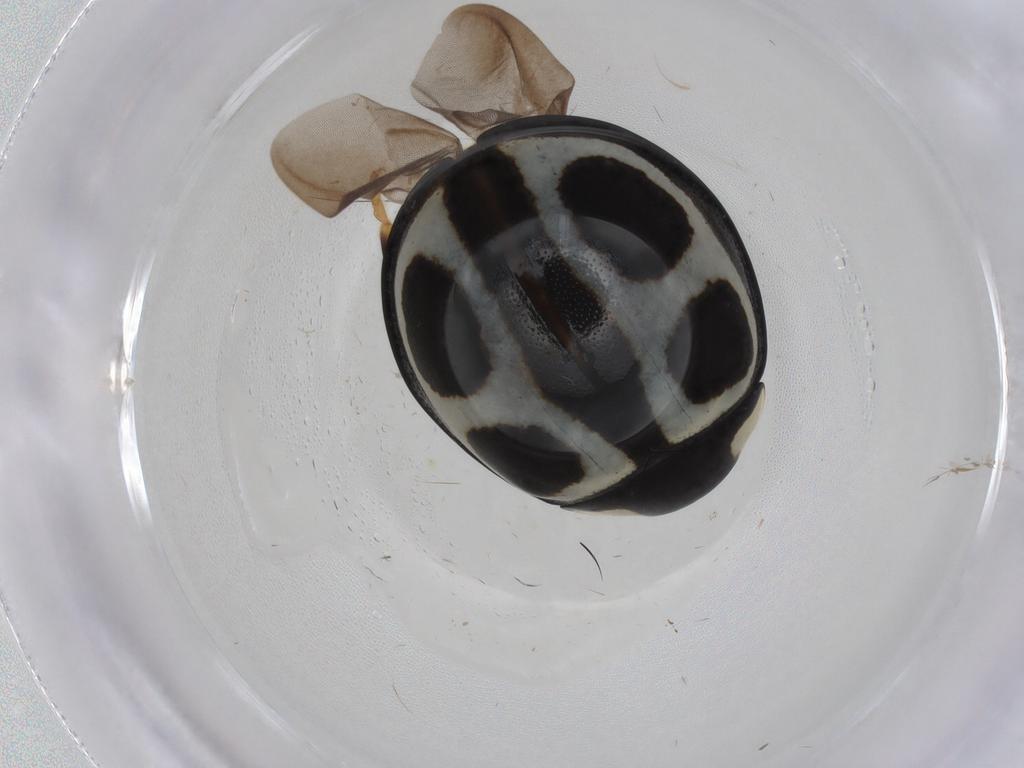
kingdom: Animalia
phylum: Arthropoda
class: Insecta
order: Coleoptera
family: Coccinellidae
